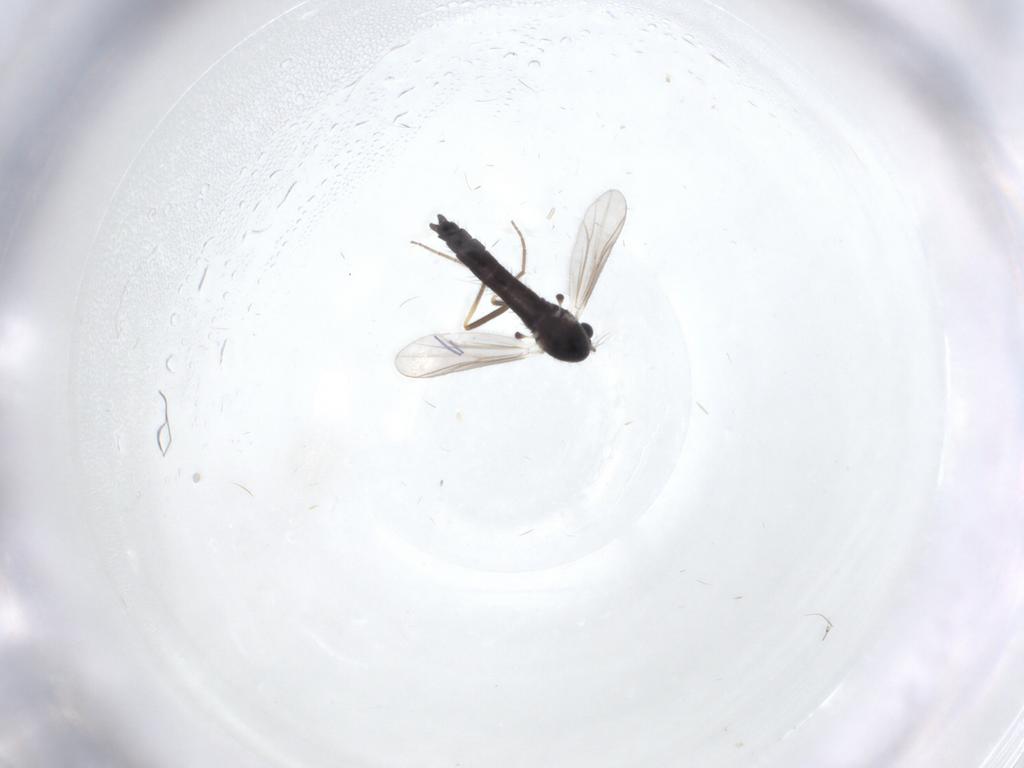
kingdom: Animalia
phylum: Arthropoda
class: Insecta
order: Diptera
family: Chironomidae
